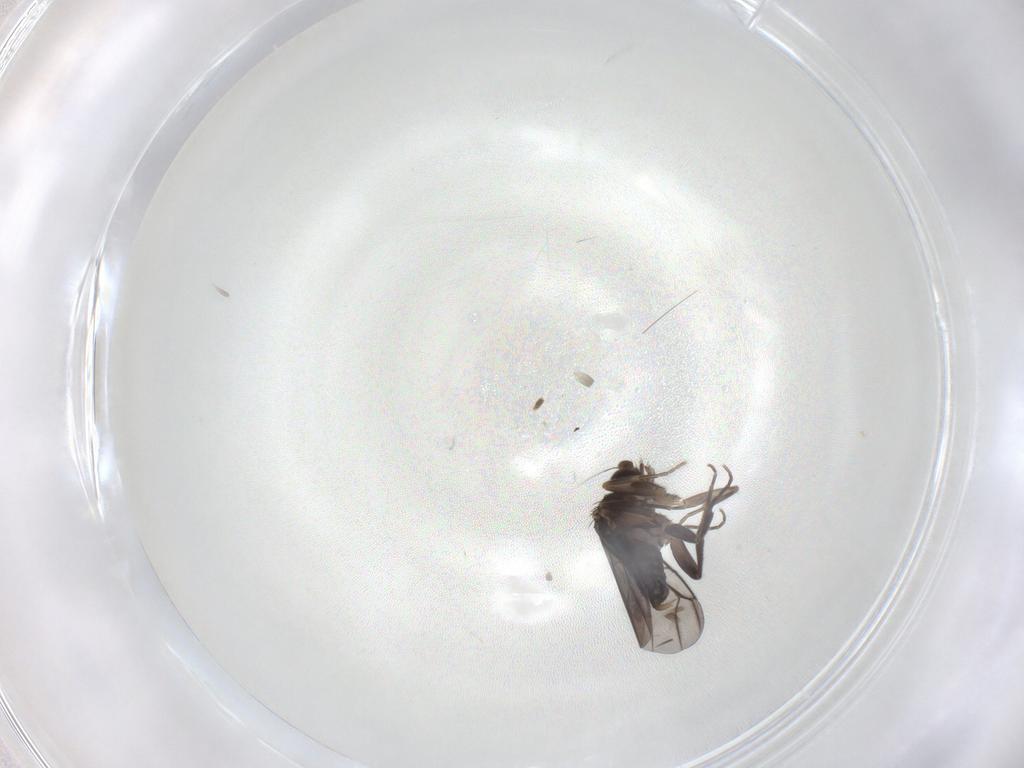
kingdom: Animalia
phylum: Arthropoda
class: Insecta
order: Diptera
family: Phoridae
